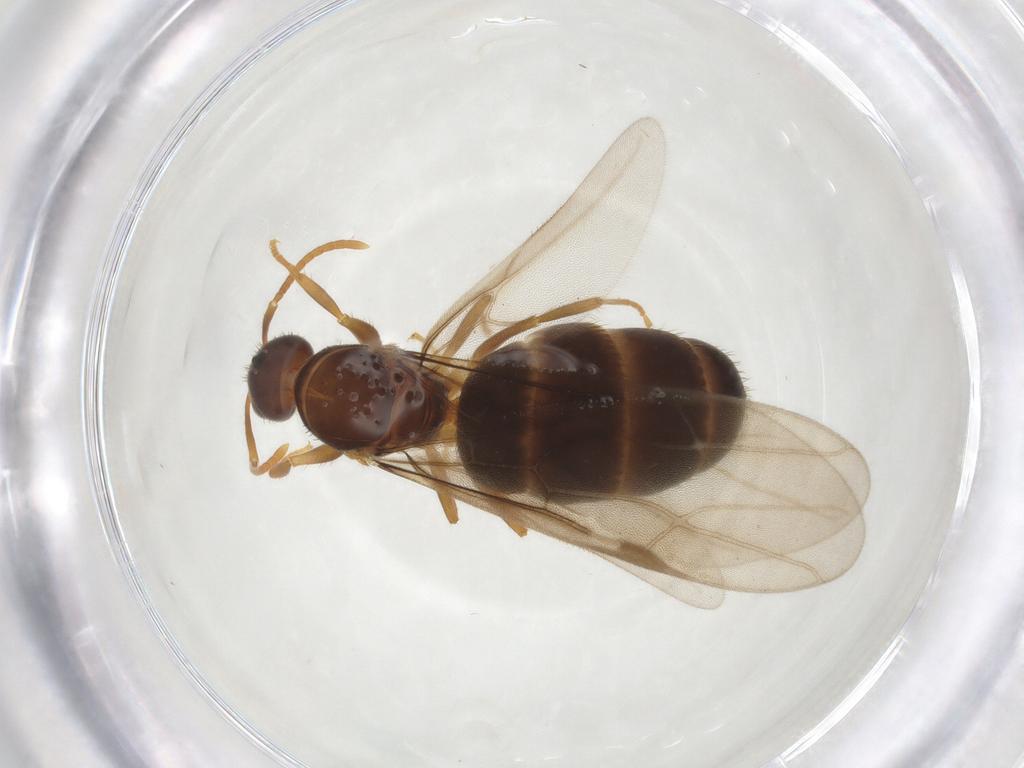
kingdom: Animalia
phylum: Arthropoda
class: Insecta
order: Hymenoptera
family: Formicidae
